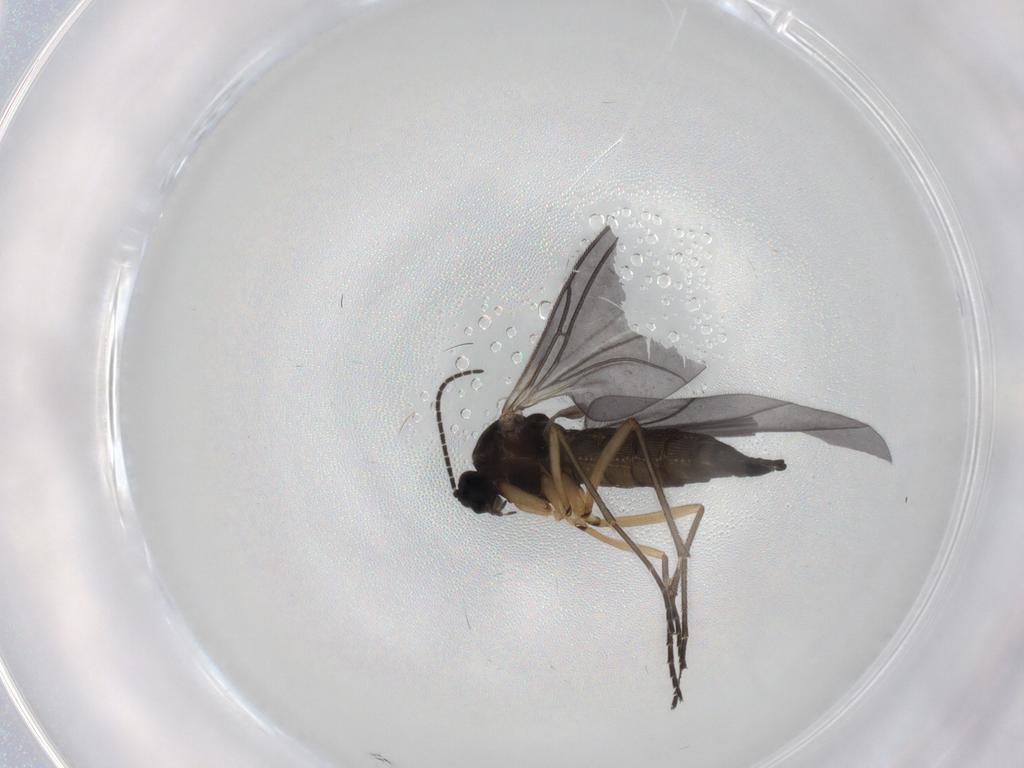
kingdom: Animalia
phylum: Arthropoda
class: Insecta
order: Diptera
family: Sciaridae
